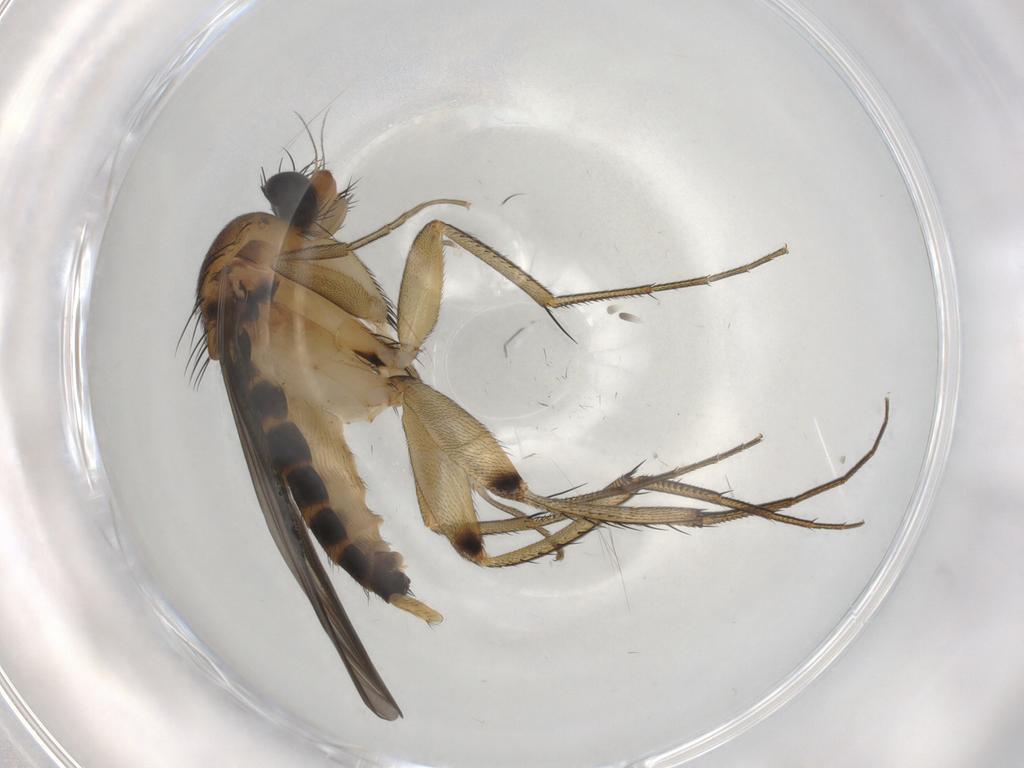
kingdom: Animalia
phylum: Arthropoda
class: Insecta
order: Diptera
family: Phoridae
